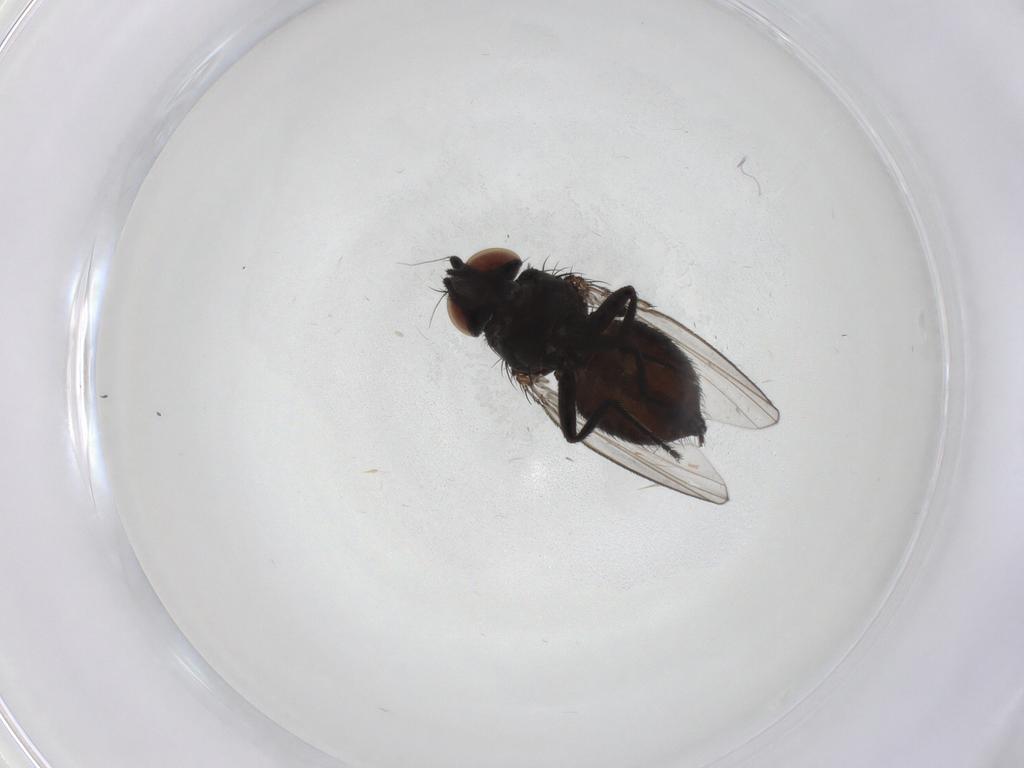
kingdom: Animalia
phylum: Arthropoda
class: Insecta
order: Diptera
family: Milichiidae
